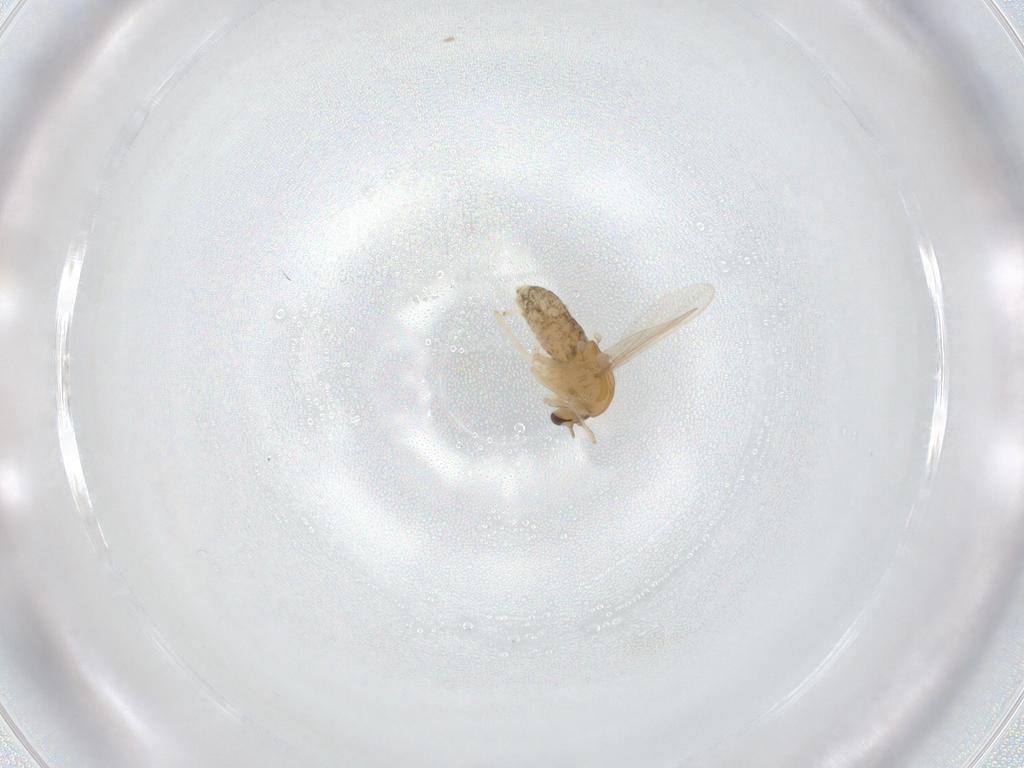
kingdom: Animalia
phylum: Arthropoda
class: Insecta
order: Diptera
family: Chironomidae
